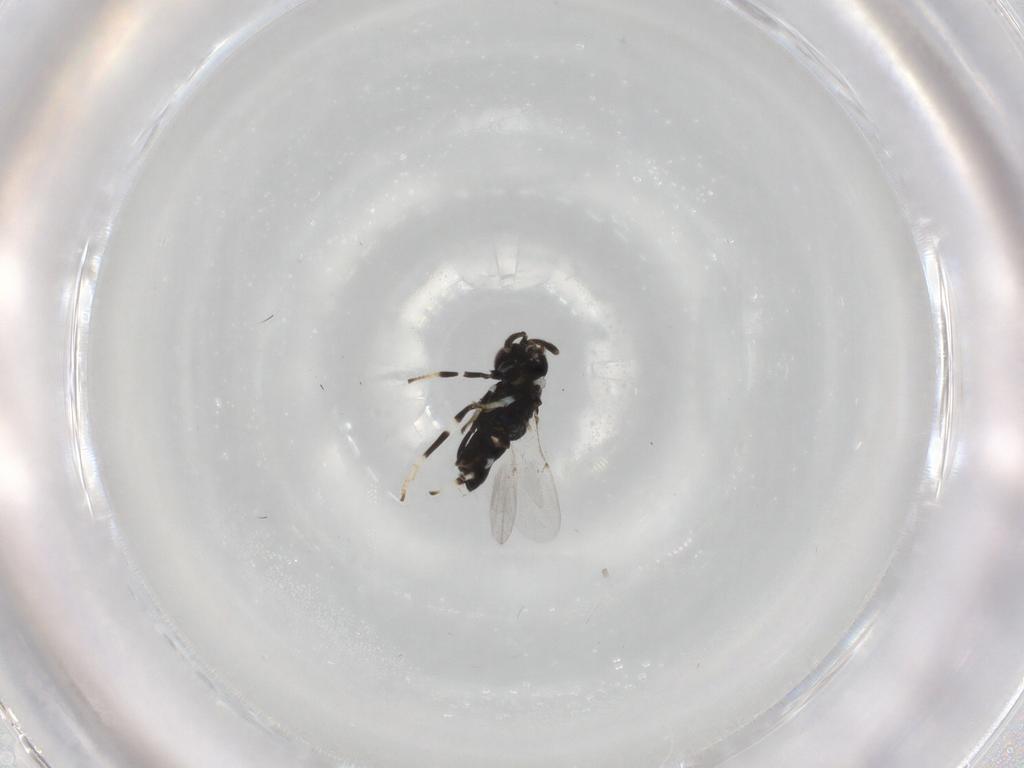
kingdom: Animalia
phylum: Arthropoda
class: Insecta
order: Hymenoptera
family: Encyrtidae
